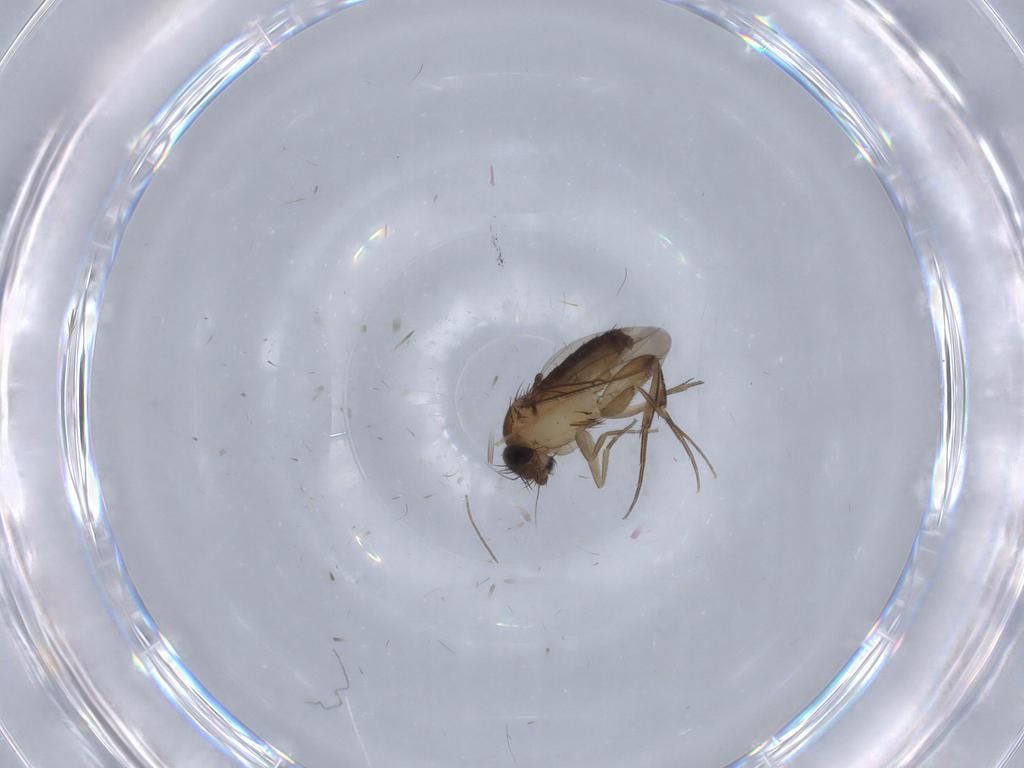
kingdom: Animalia
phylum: Arthropoda
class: Insecta
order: Diptera
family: Phoridae
